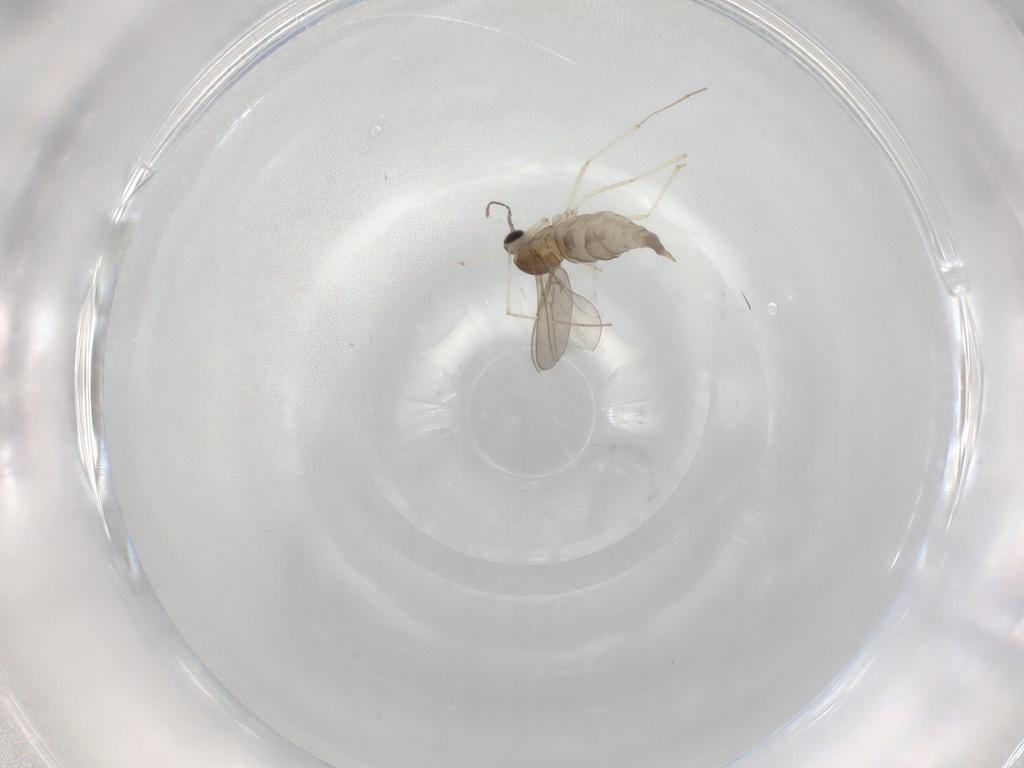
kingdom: Animalia
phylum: Arthropoda
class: Insecta
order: Diptera
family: Cecidomyiidae
